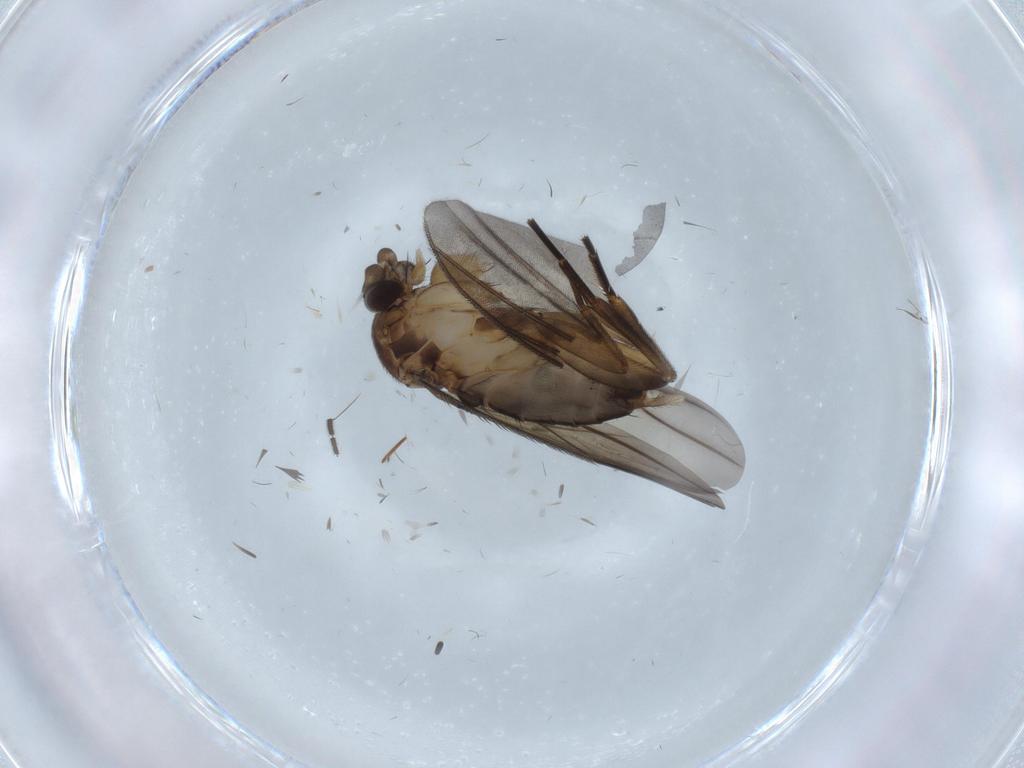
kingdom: Animalia
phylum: Arthropoda
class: Insecta
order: Diptera
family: Phoridae
